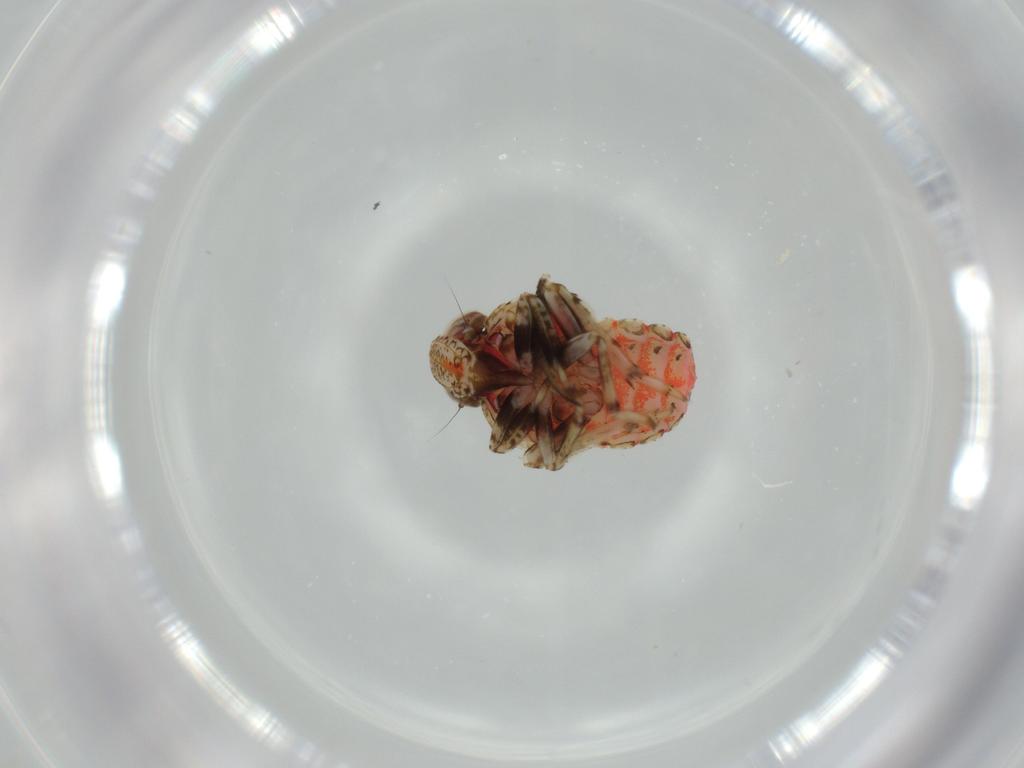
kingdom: Animalia
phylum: Arthropoda
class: Insecta
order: Hemiptera
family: Issidae
